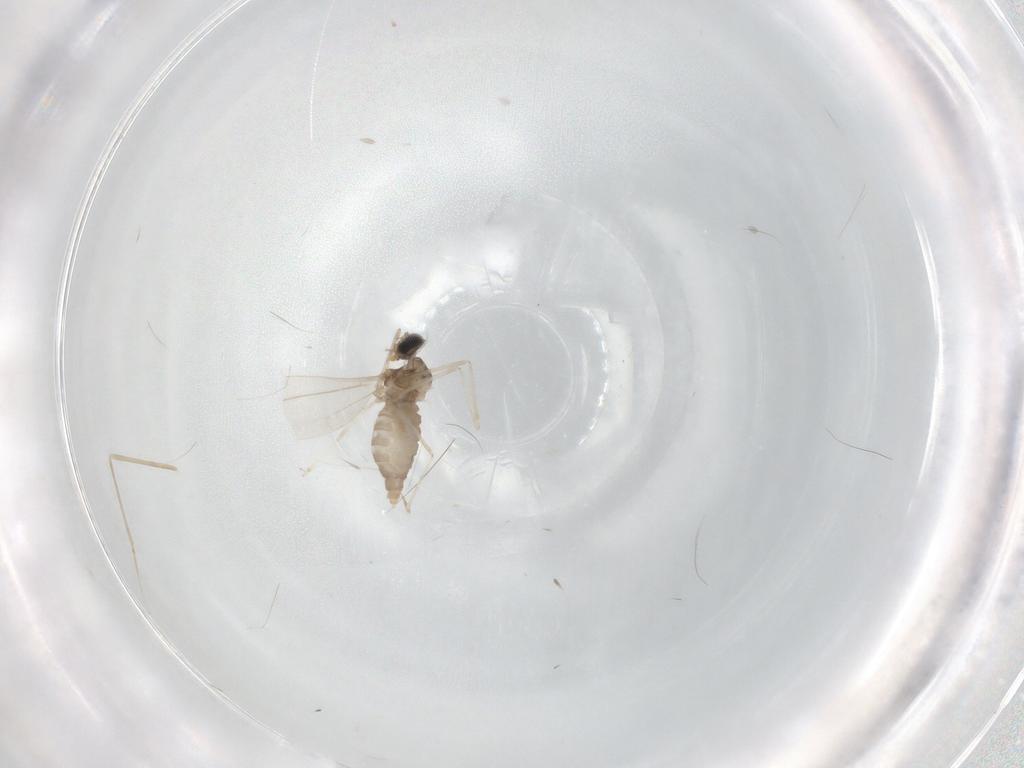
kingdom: Animalia
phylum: Arthropoda
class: Insecta
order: Diptera
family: Cecidomyiidae
